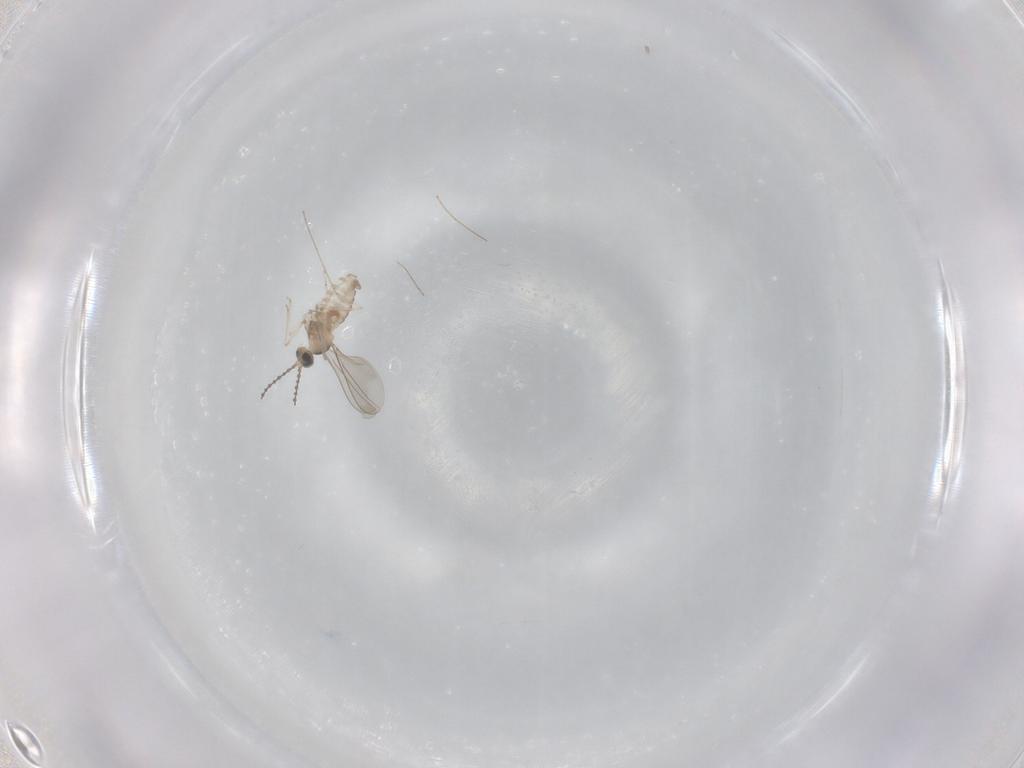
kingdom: Animalia
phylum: Arthropoda
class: Insecta
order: Diptera
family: Cecidomyiidae
